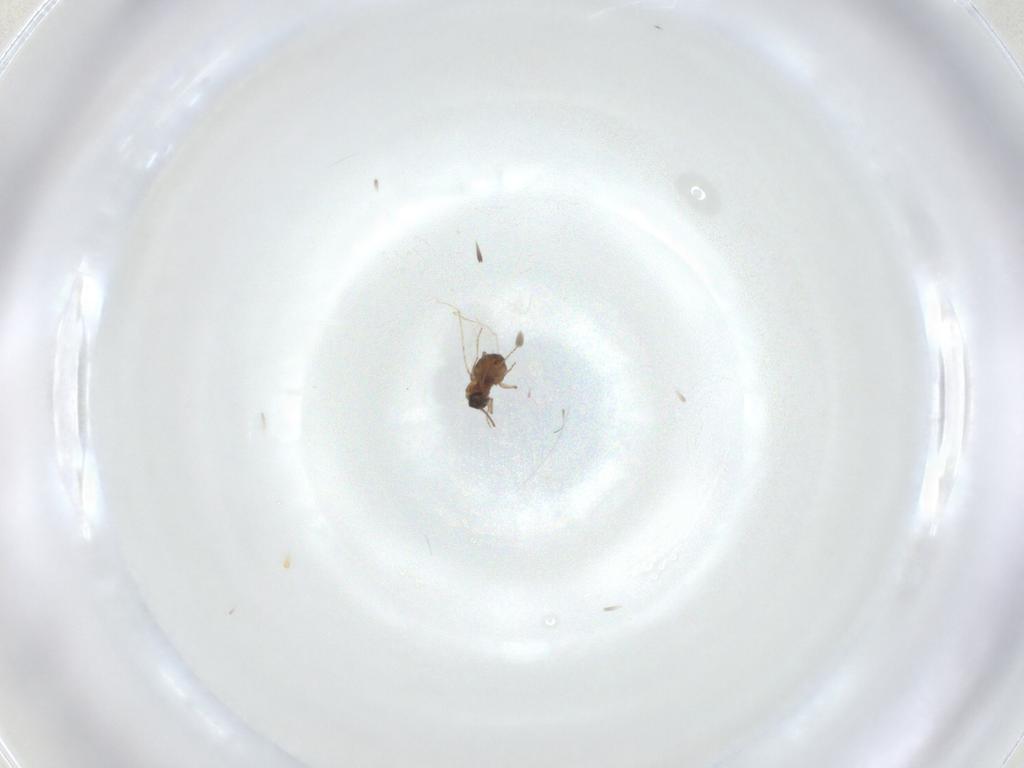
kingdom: Animalia
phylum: Arthropoda
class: Insecta
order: Diptera
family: Ceratopogonidae
